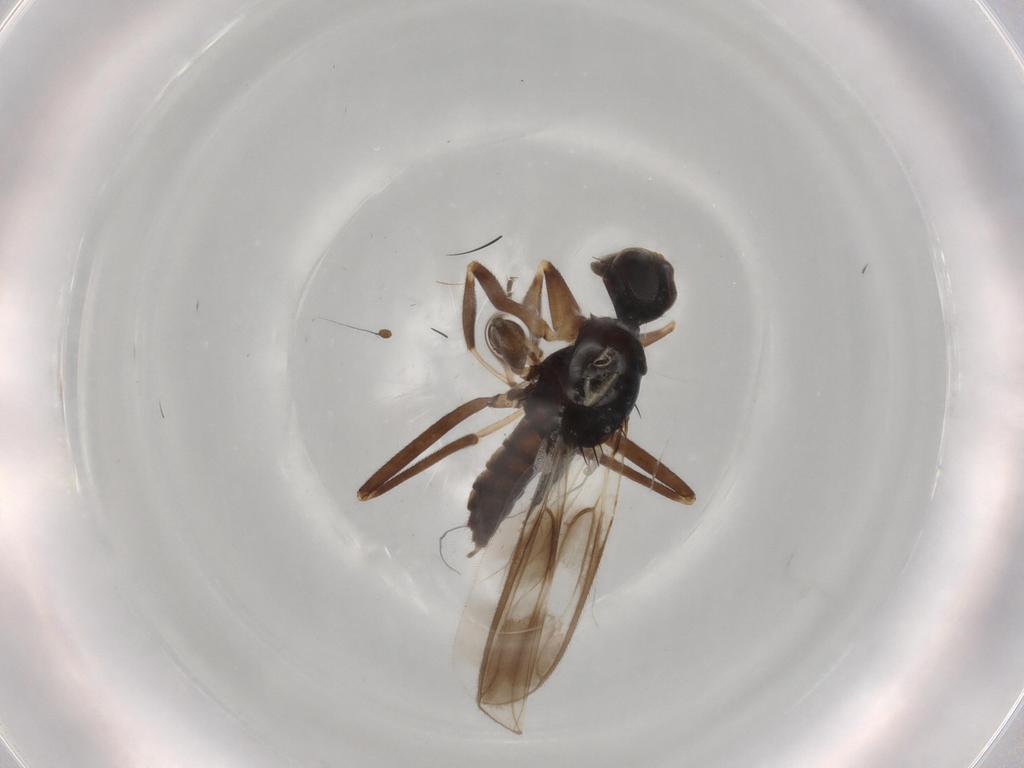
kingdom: Animalia
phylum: Arthropoda
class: Insecta
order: Diptera
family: Hybotidae
